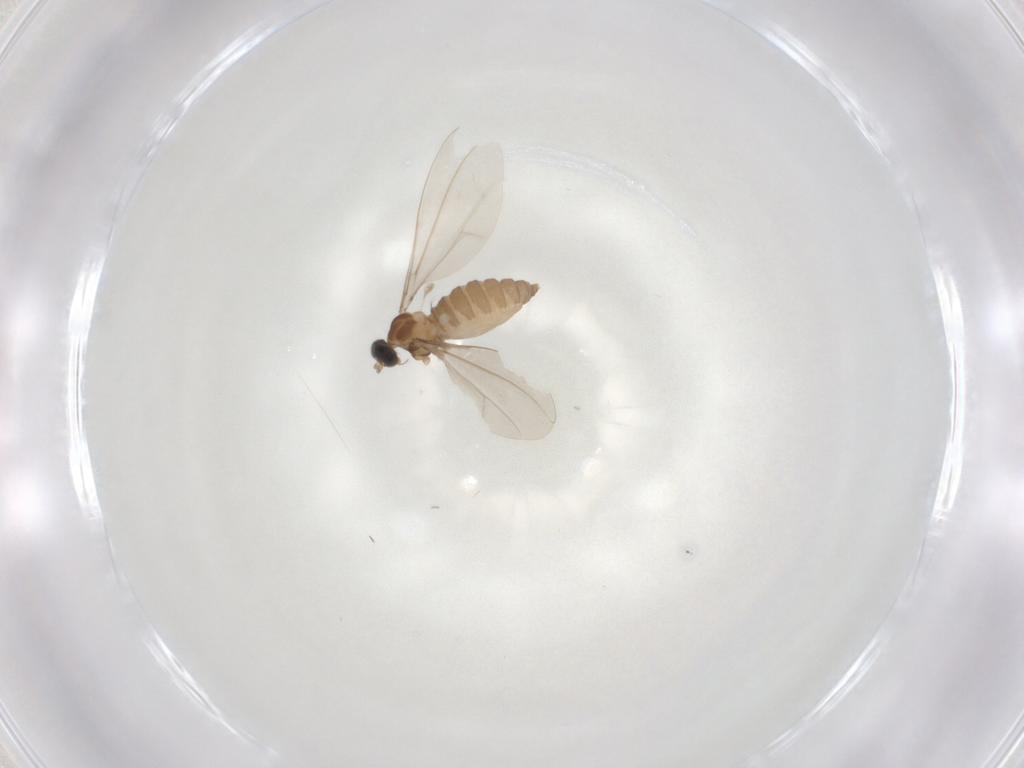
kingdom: Animalia
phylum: Arthropoda
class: Insecta
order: Diptera
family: Cecidomyiidae
